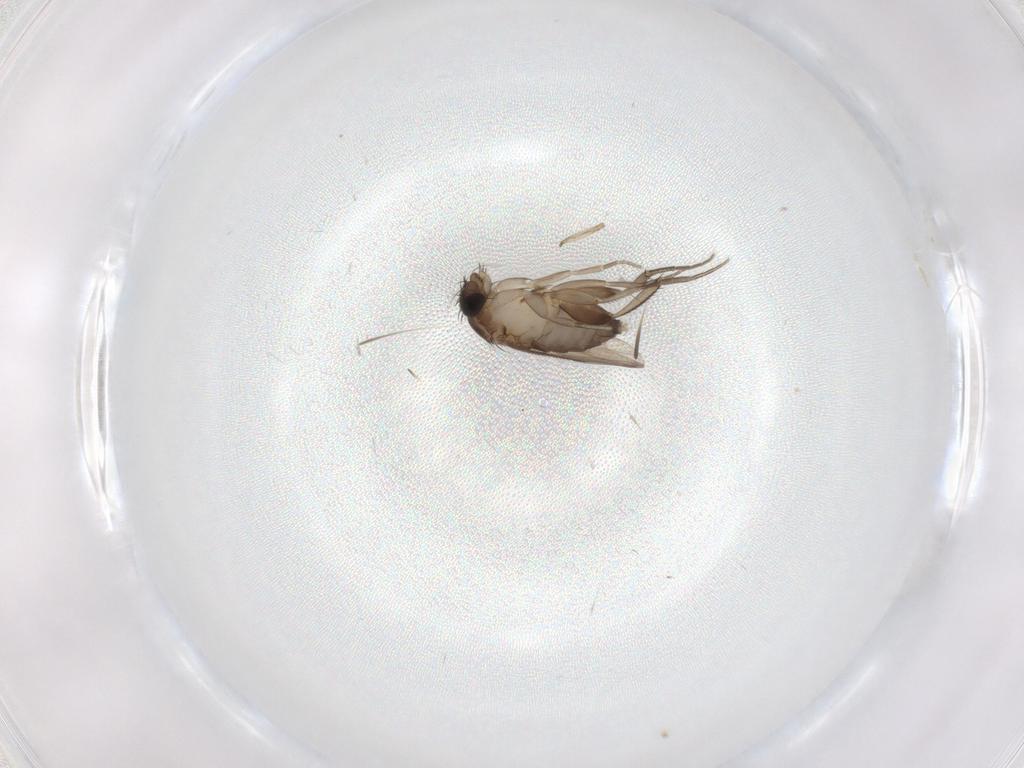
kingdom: Animalia
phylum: Arthropoda
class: Insecta
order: Diptera
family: Phoridae
